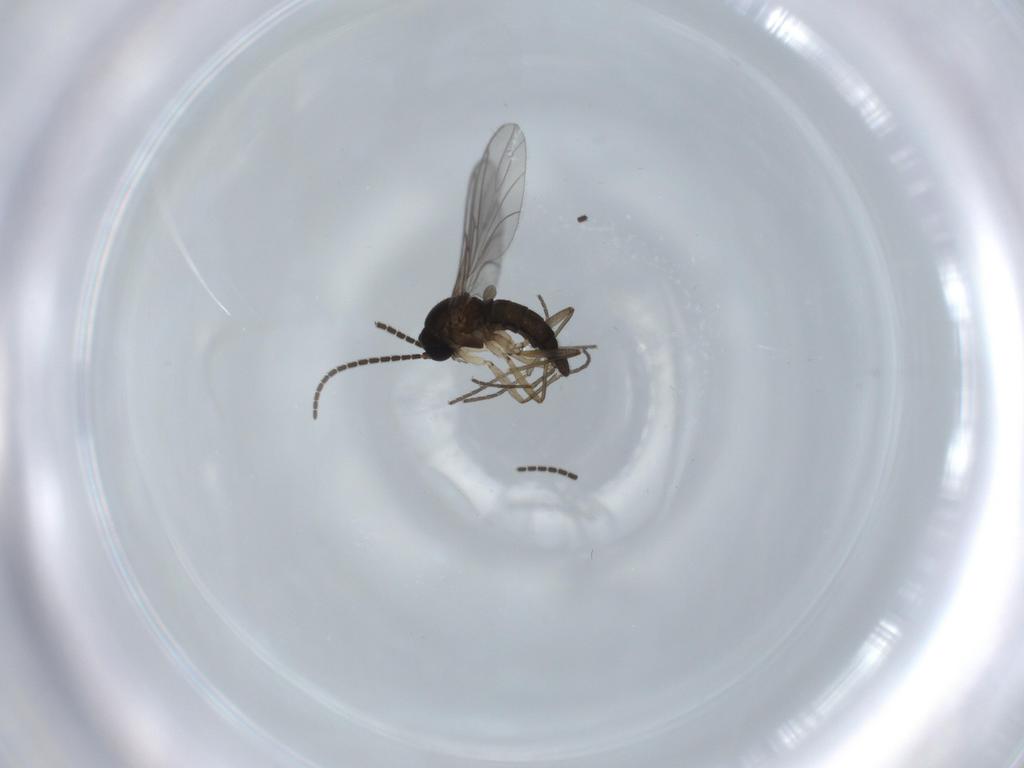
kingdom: Animalia
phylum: Arthropoda
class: Insecta
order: Diptera
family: Sciaridae
